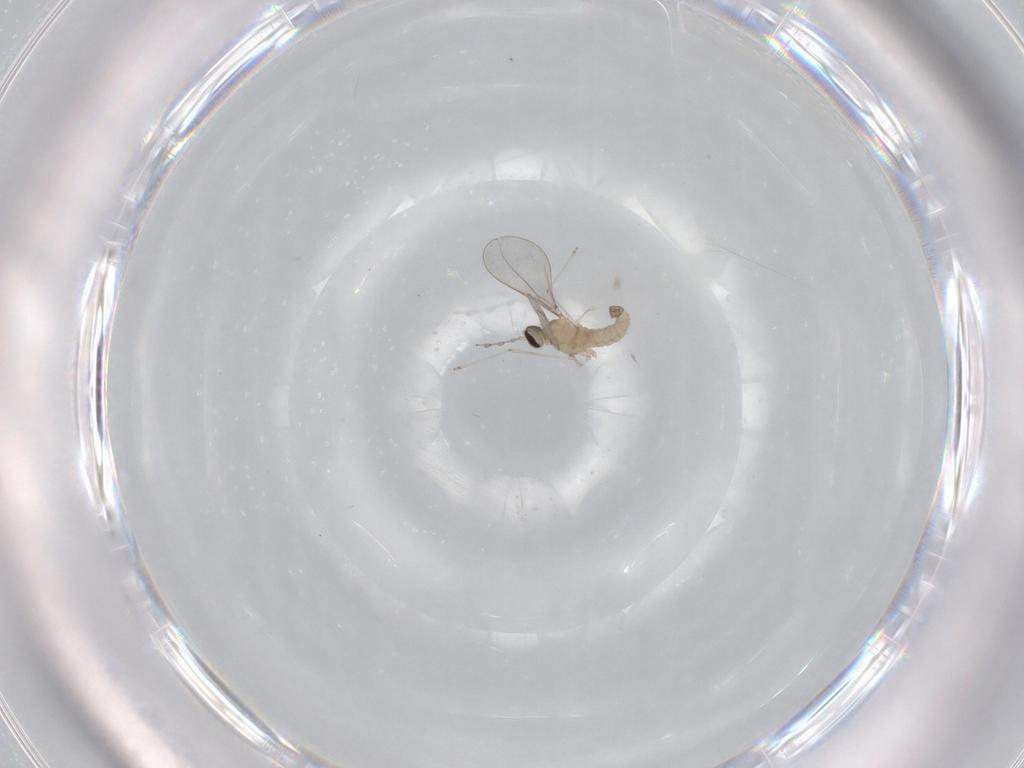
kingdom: Animalia
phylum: Arthropoda
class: Insecta
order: Diptera
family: Cecidomyiidae
